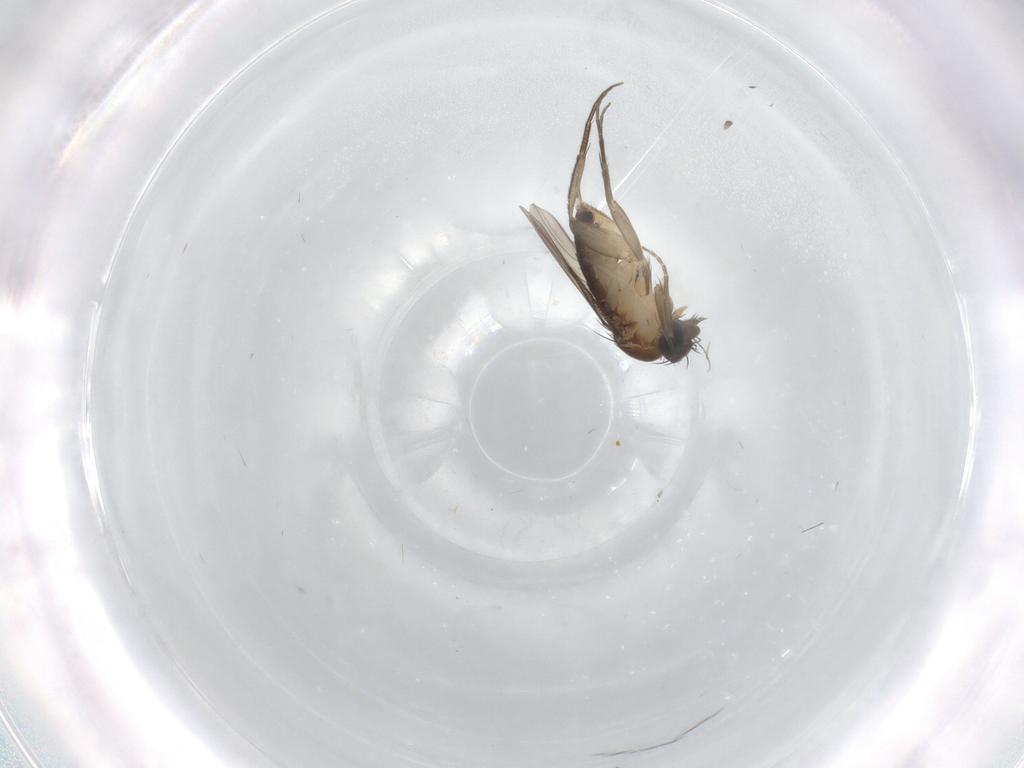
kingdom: Animalia
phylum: Arthropoda
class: Insecta
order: Diptera
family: Phoridae
